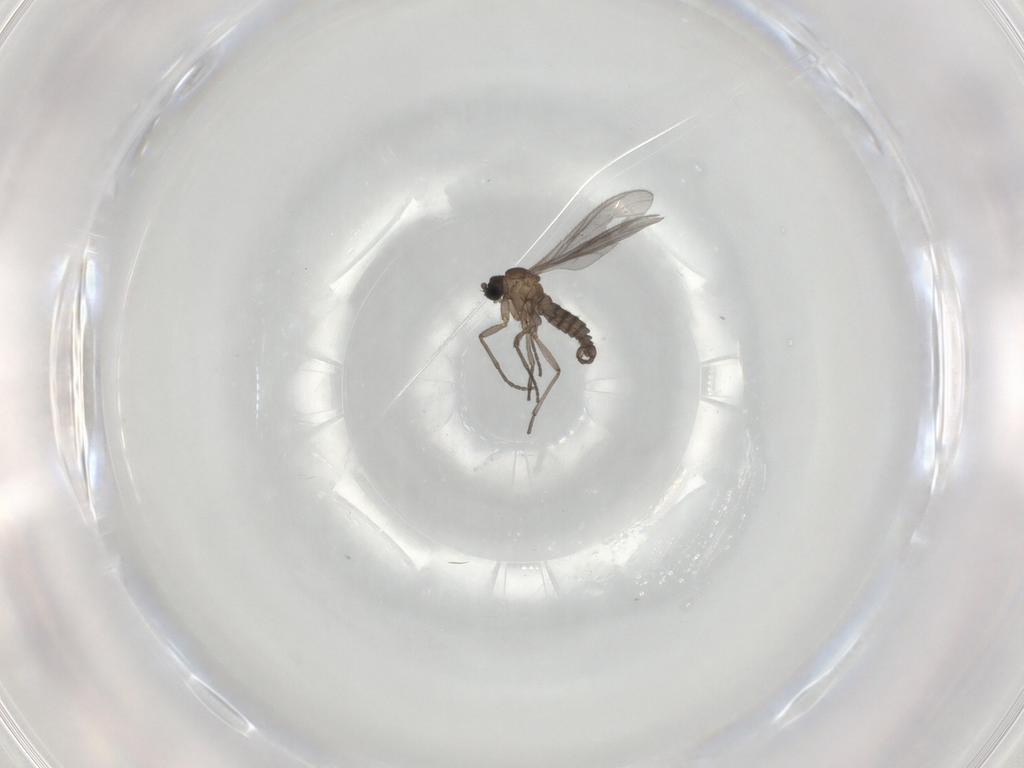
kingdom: Animalia
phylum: Arthropoda
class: Insecta
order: Diptera
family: Sciaridae
